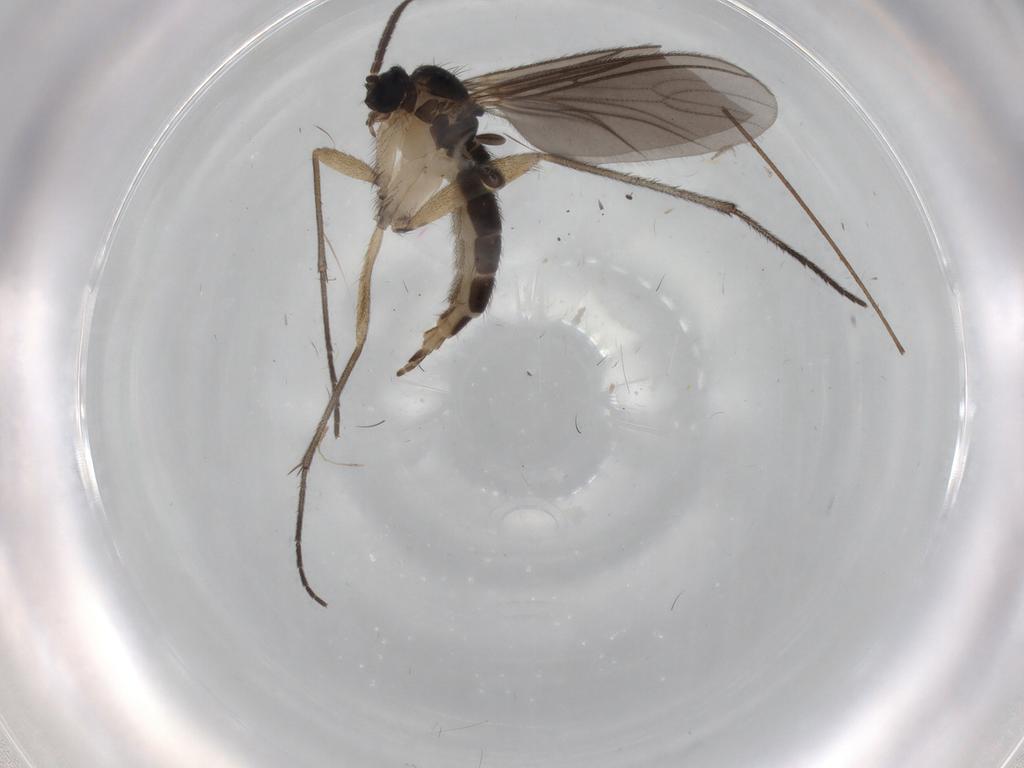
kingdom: Animalia
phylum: Arthropoda
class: Insecta
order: Diptera
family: Sciaridae
